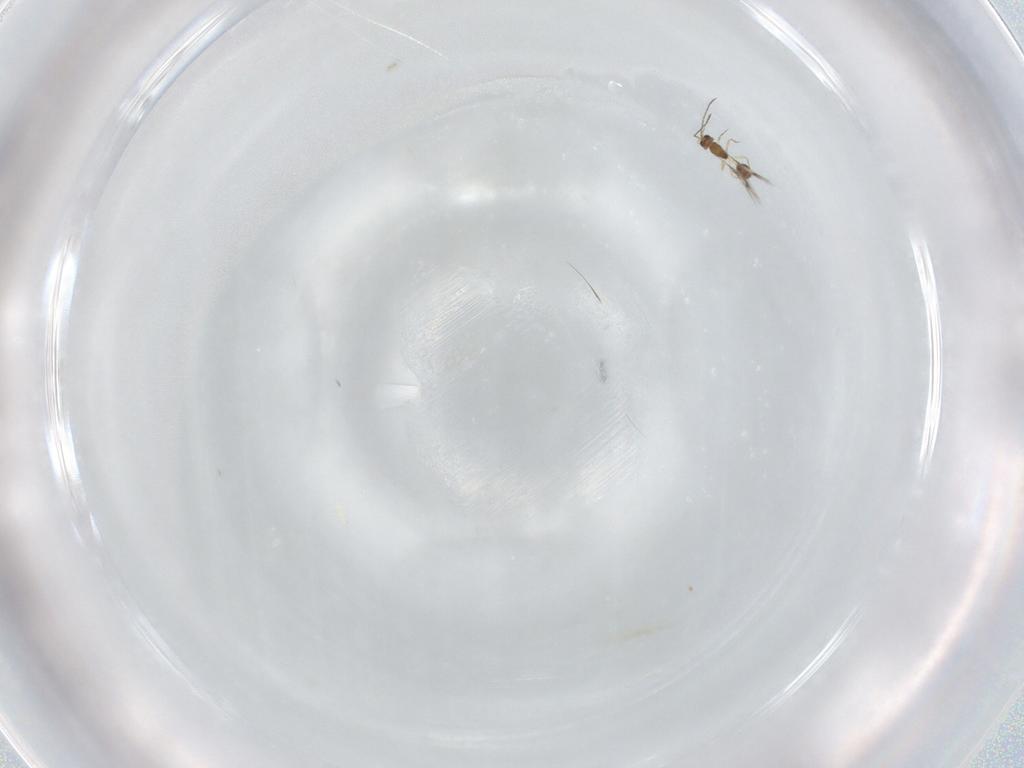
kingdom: Animalia
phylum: Arthropoda
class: Insecta
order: Hymenoptera
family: Mymarommatidae
